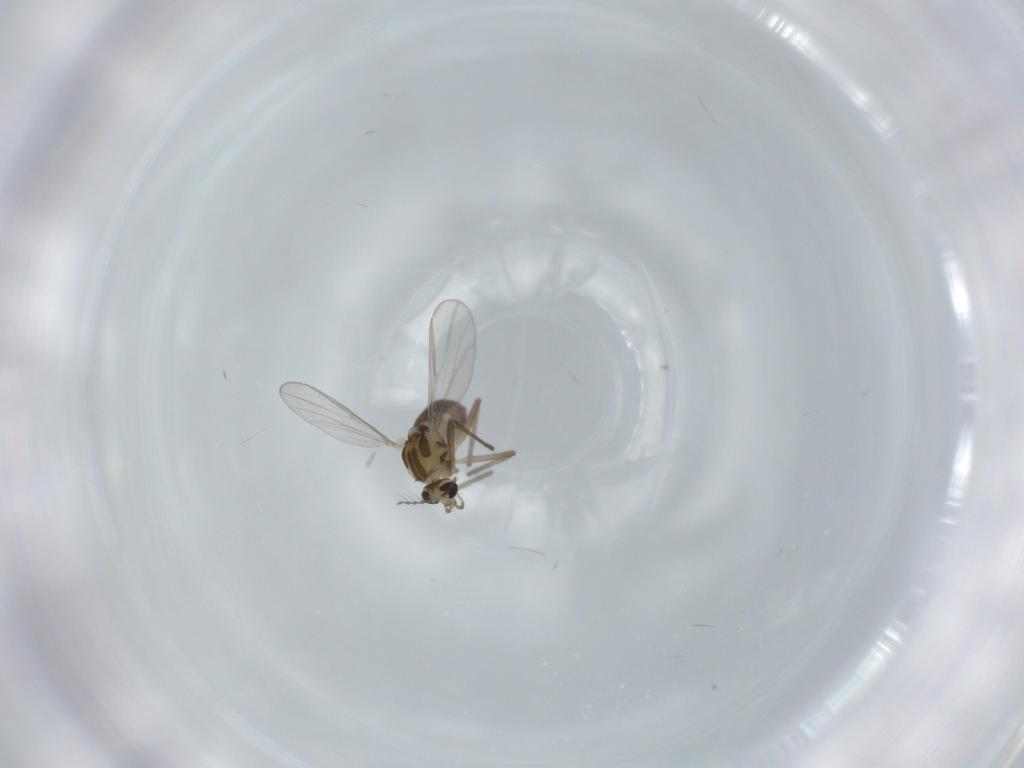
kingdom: Animalia
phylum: Arthropoda
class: Insecta
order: Diptera
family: Chironomidae
